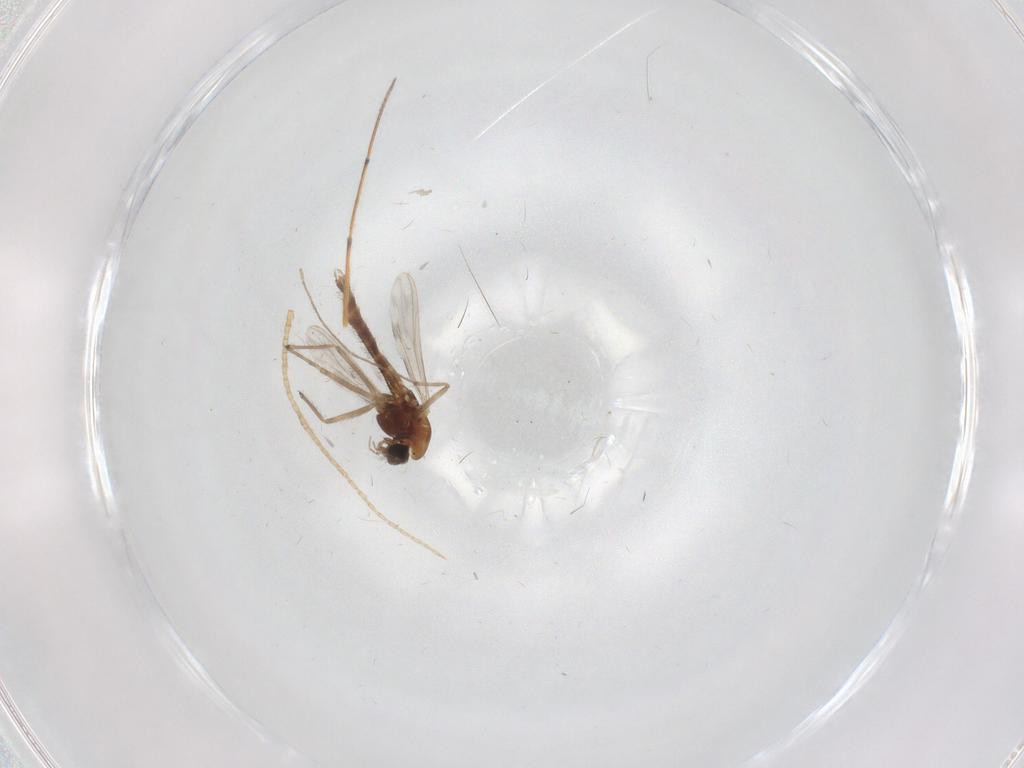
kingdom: Animalia
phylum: Arthropoda
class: Insecta
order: Diptera
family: Chironomidae
